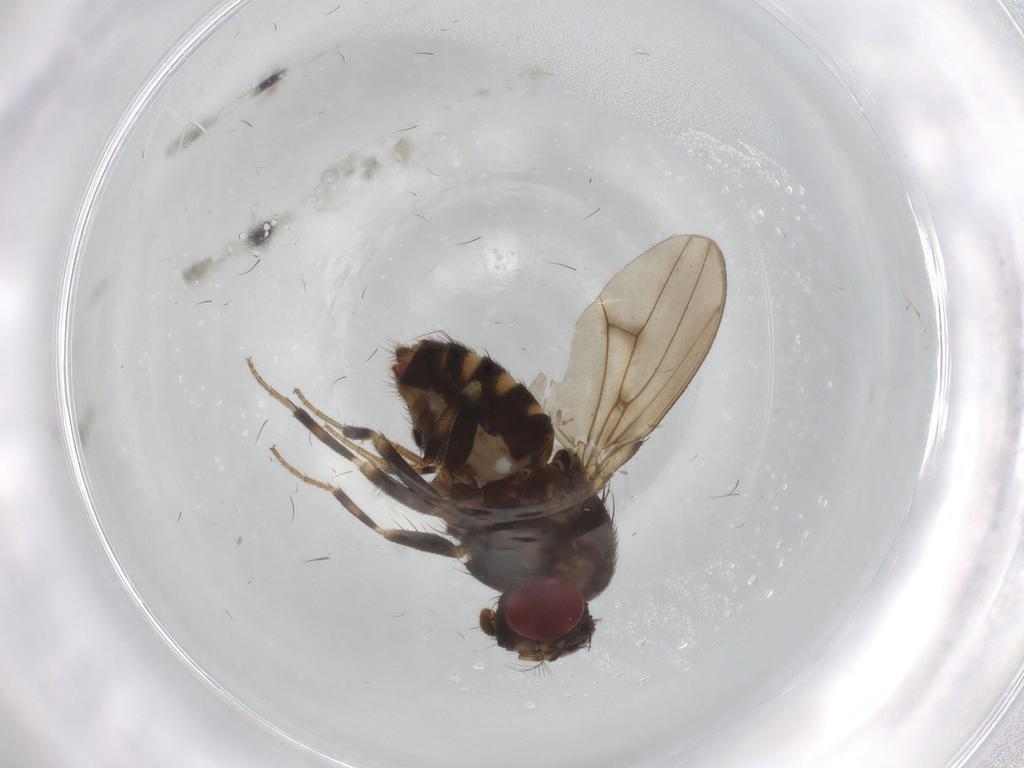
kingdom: Animalia
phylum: Arthropoda
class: Insecta
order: Diptera
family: Drosophilidae
